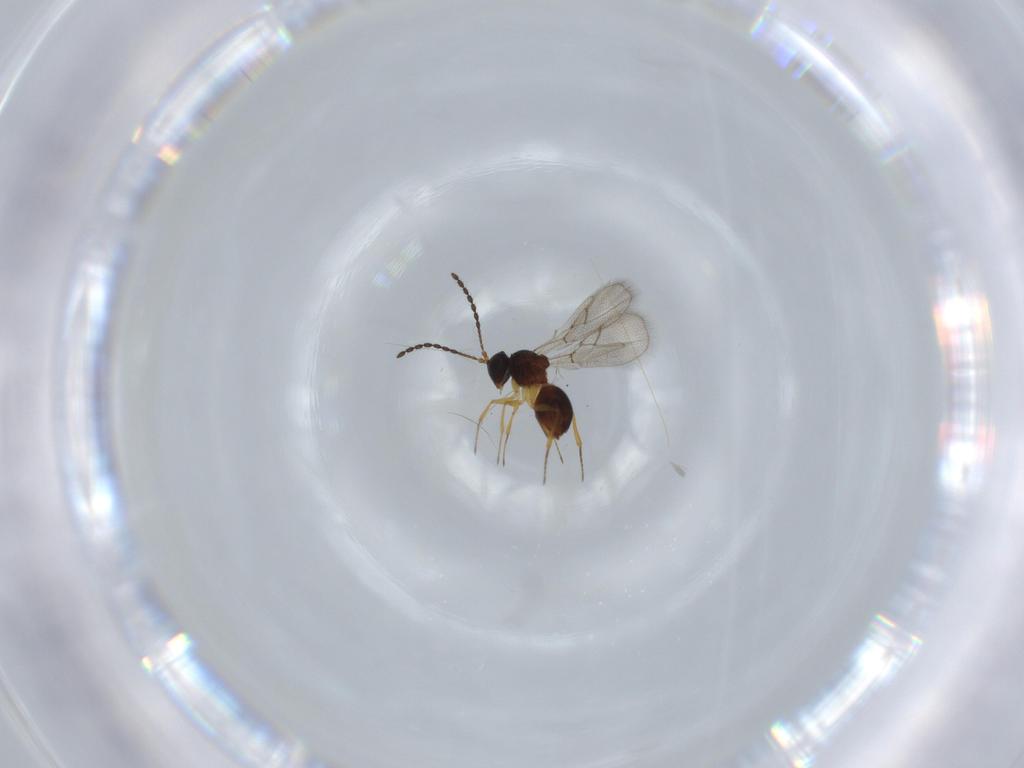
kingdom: Animalia
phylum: Arthropoda
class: Insecta
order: Hymenoptera
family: Figitidae
